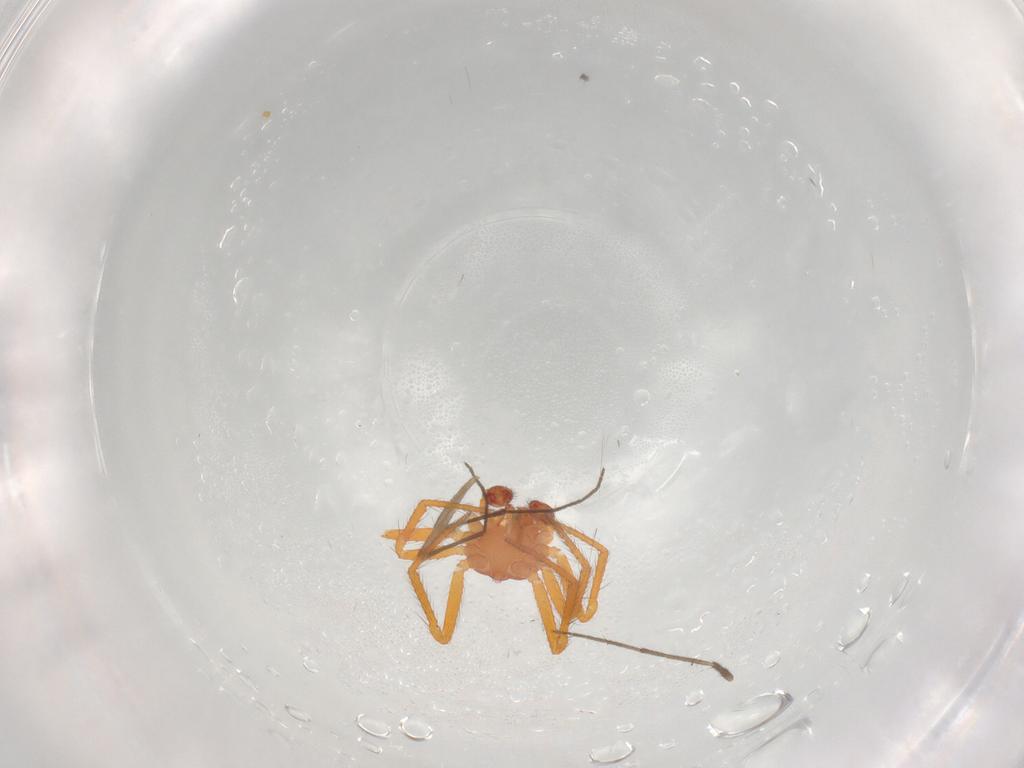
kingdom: Animalia
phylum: Arthropoda
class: Arachnida
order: Araneae
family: Theridiidae
